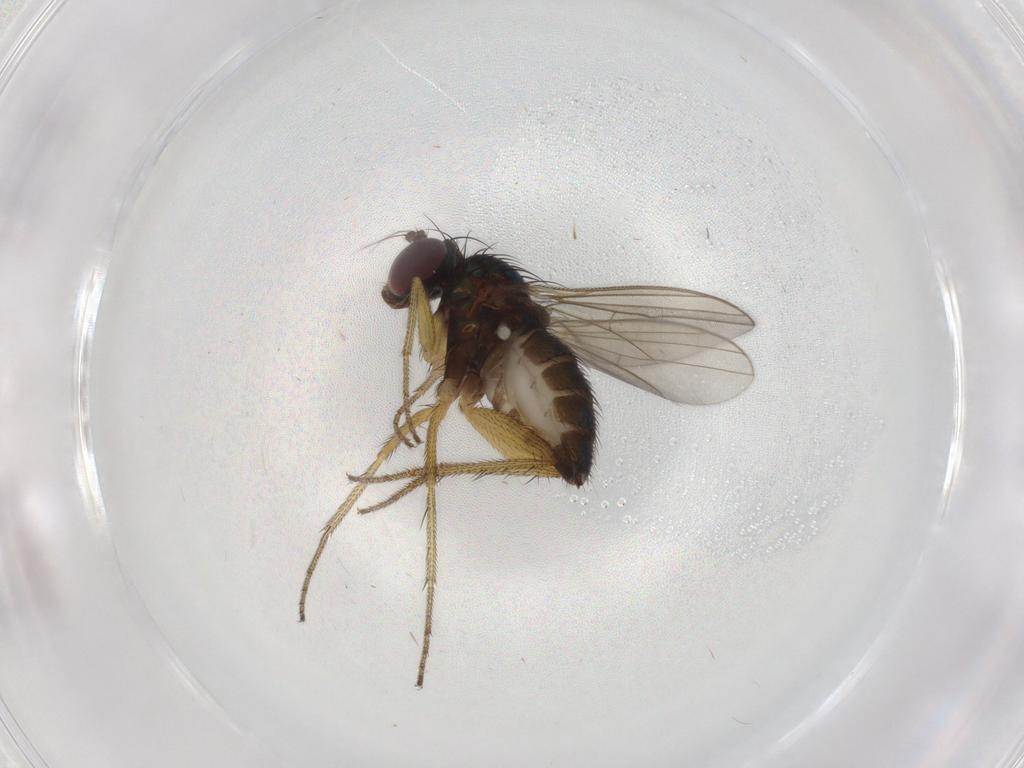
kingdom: Animalia
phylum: Arthropoda
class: Insecta
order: Diptera
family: Dolichopodidae
